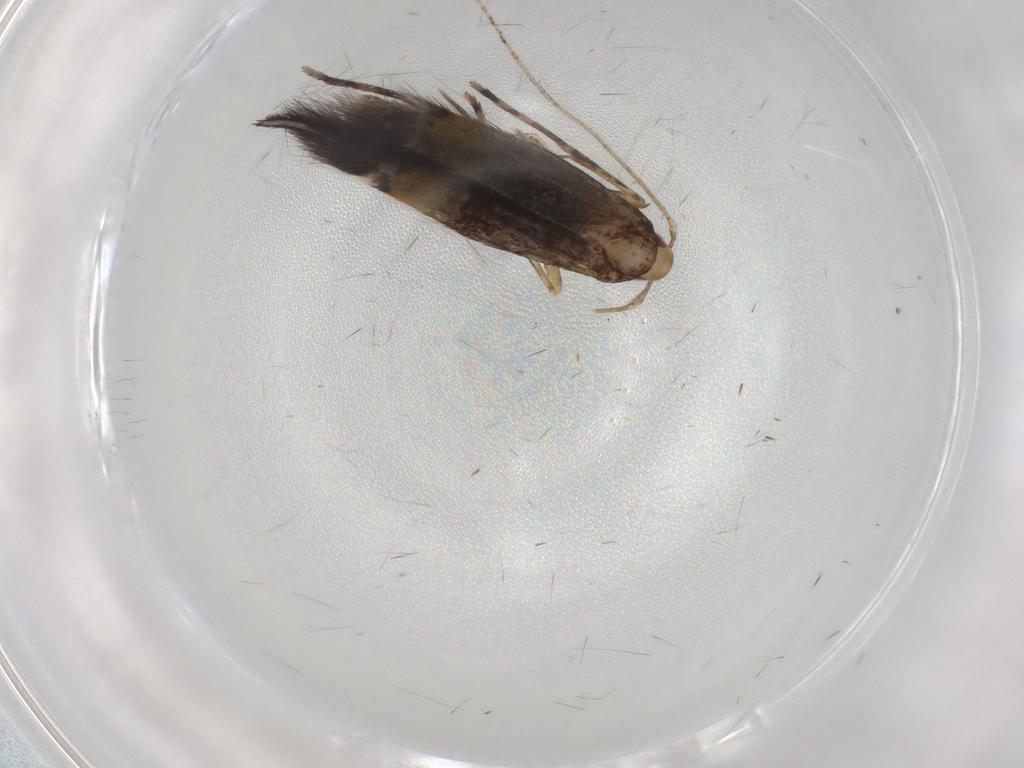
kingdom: Animalia
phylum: Arthropoda
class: Insecta
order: Lepidoptera
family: Cosmopterigidae
